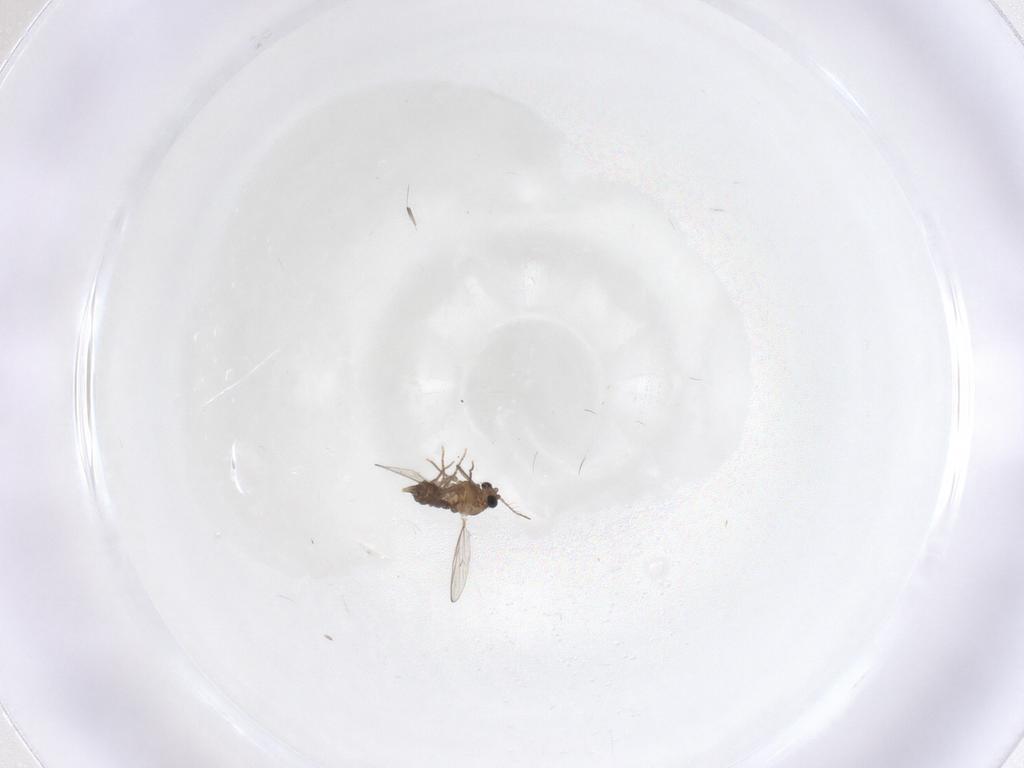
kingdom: Animalia
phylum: Arthropoda
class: Insecta
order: Diptera
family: Chironomidae
